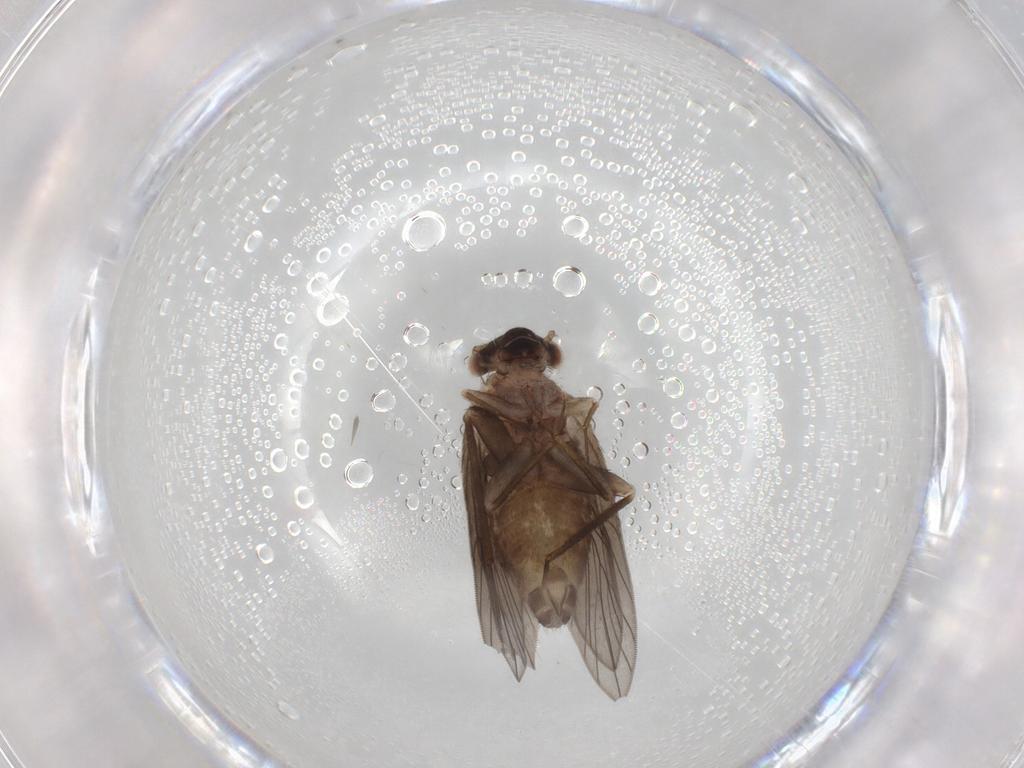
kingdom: Animalia
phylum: Arthropoda
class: Insecta
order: Psocodea
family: Lepidopsocidae
